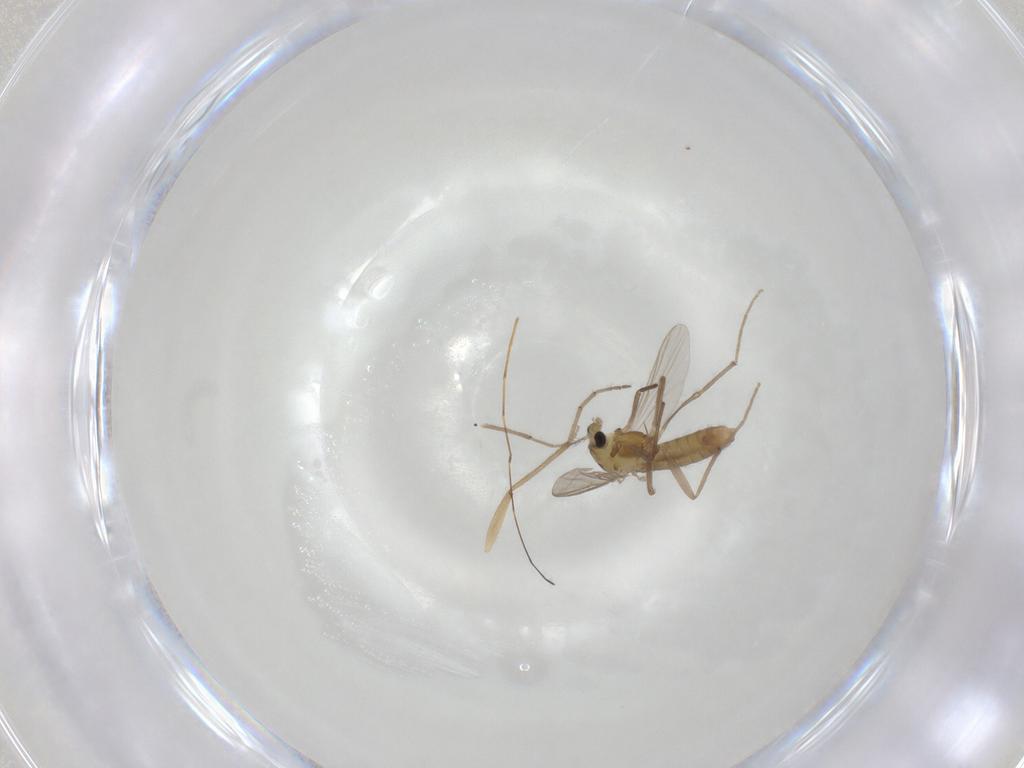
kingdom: Animalia
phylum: Arthropoda
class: Insecta
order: Diptera
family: Chironomidae
